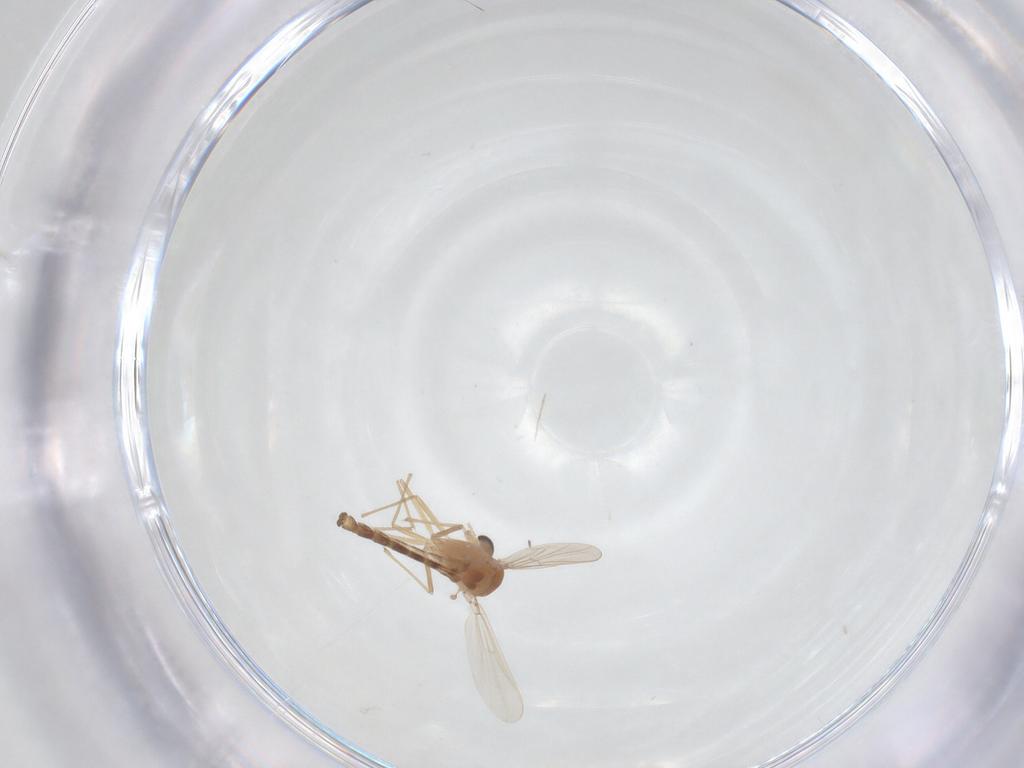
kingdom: Animalia
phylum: Arthropoda
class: Insecta
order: Diptera
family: Chironomidae
